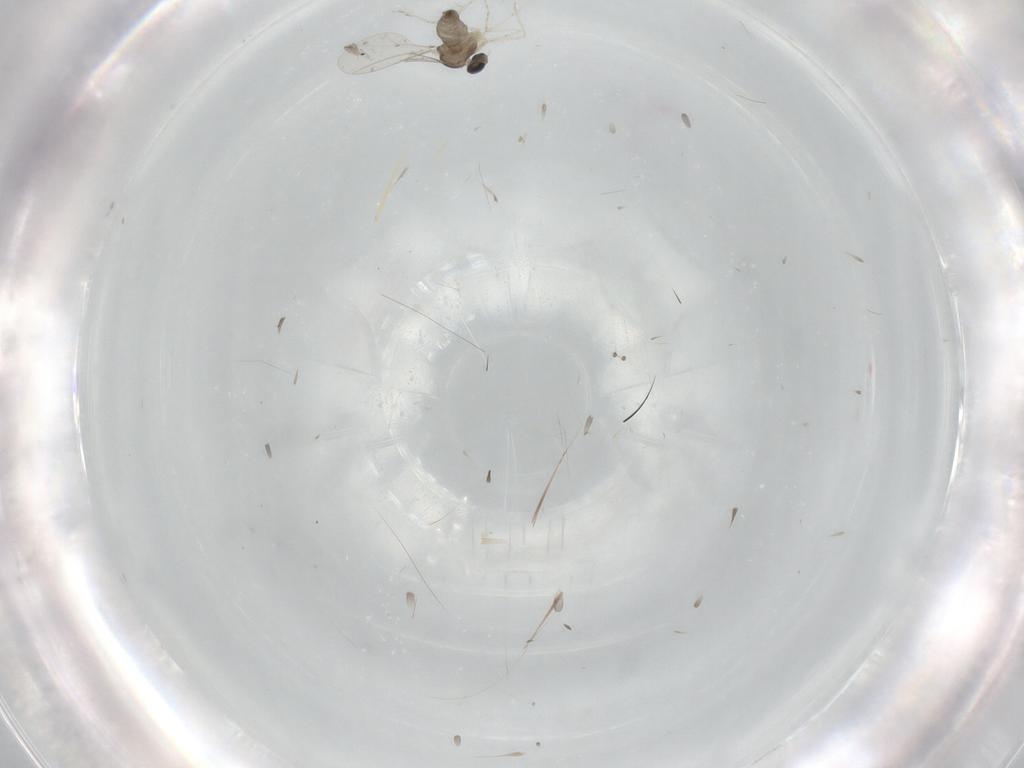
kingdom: Animalia
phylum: Arthropoda
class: Insecta
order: Diptera
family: Cecidomyiidae
